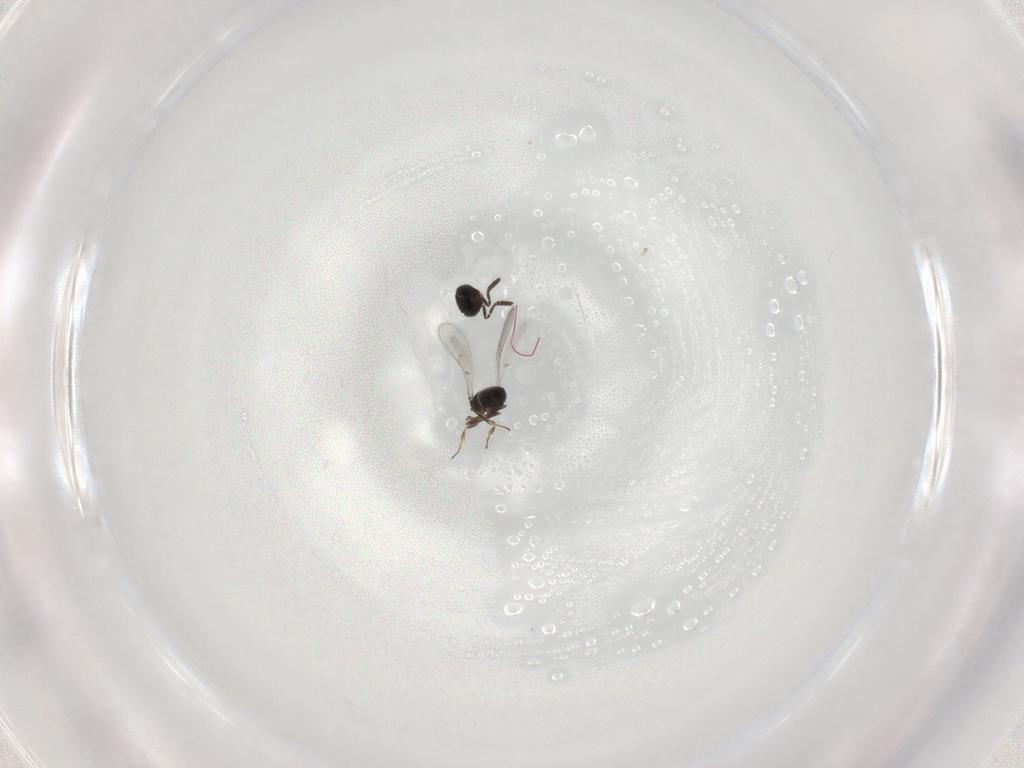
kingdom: Animalia
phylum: Arthropoda
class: Insecta
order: Hymenoptera
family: Scelionidae
